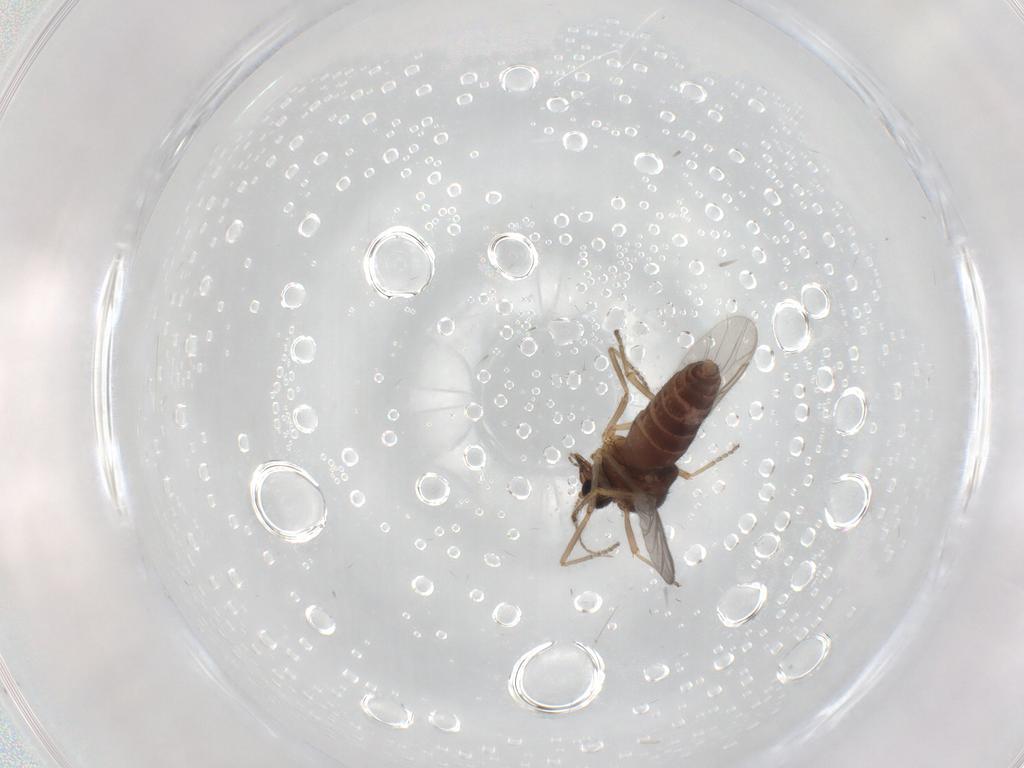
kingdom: Animalia
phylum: Arthropoda
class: Insecta
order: Diptera
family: Ceratopogonidae
